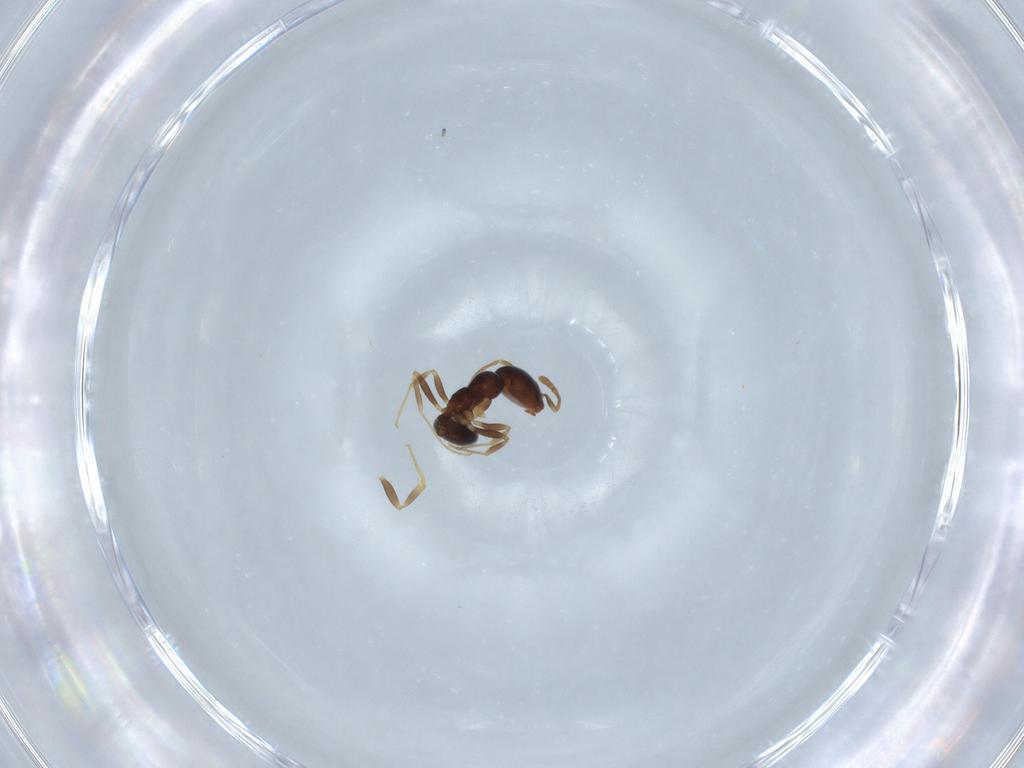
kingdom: Animalia
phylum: Arthropoda
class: Insecta
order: Hymenoptera
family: Formicidae
